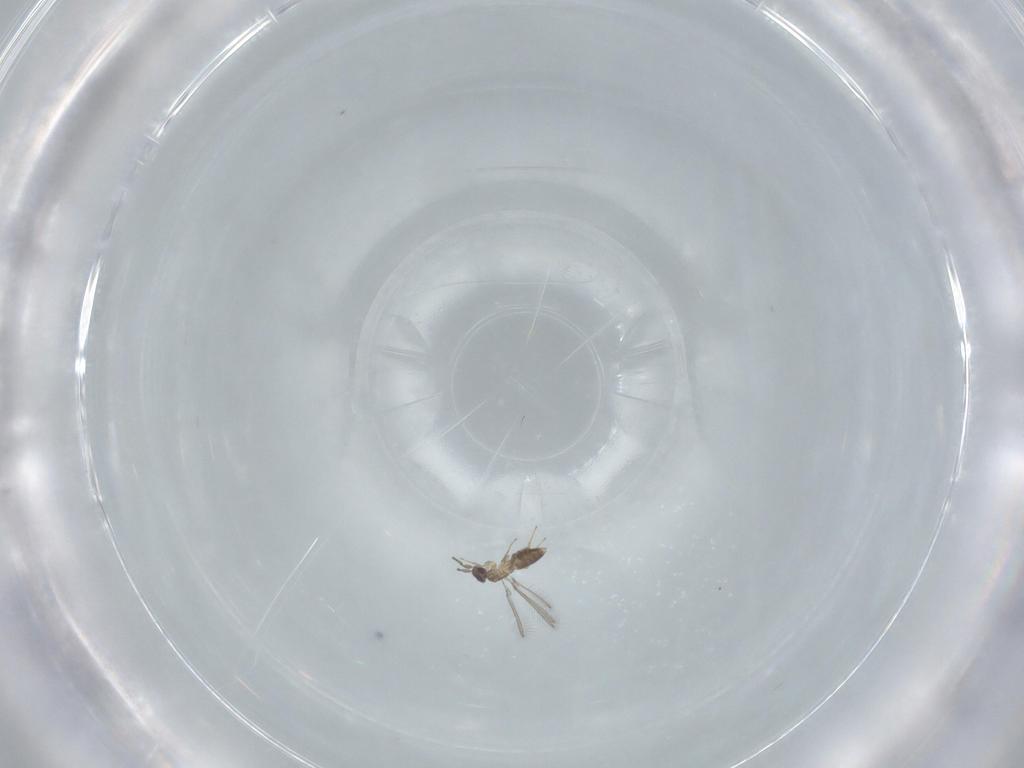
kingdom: Animalia
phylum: Arthropoda
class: Insecta
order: Hymenoptera
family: Mymaridae
